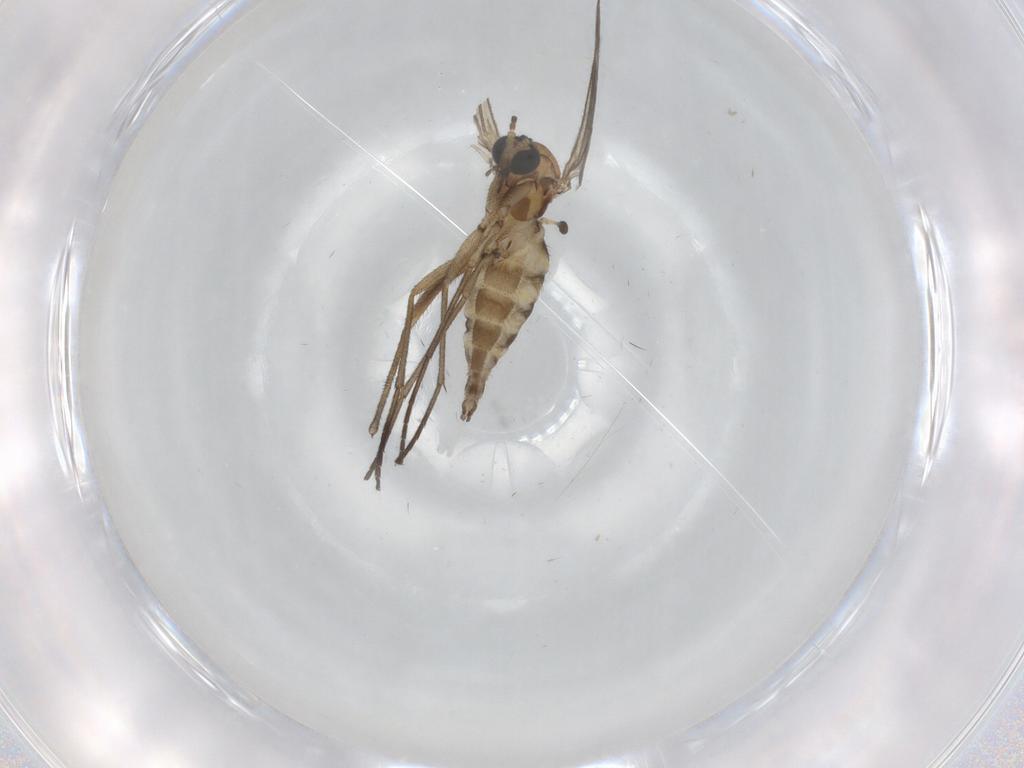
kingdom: Animalia
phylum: Arthropoda
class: Insecta
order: Diptera
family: Sciaridae
